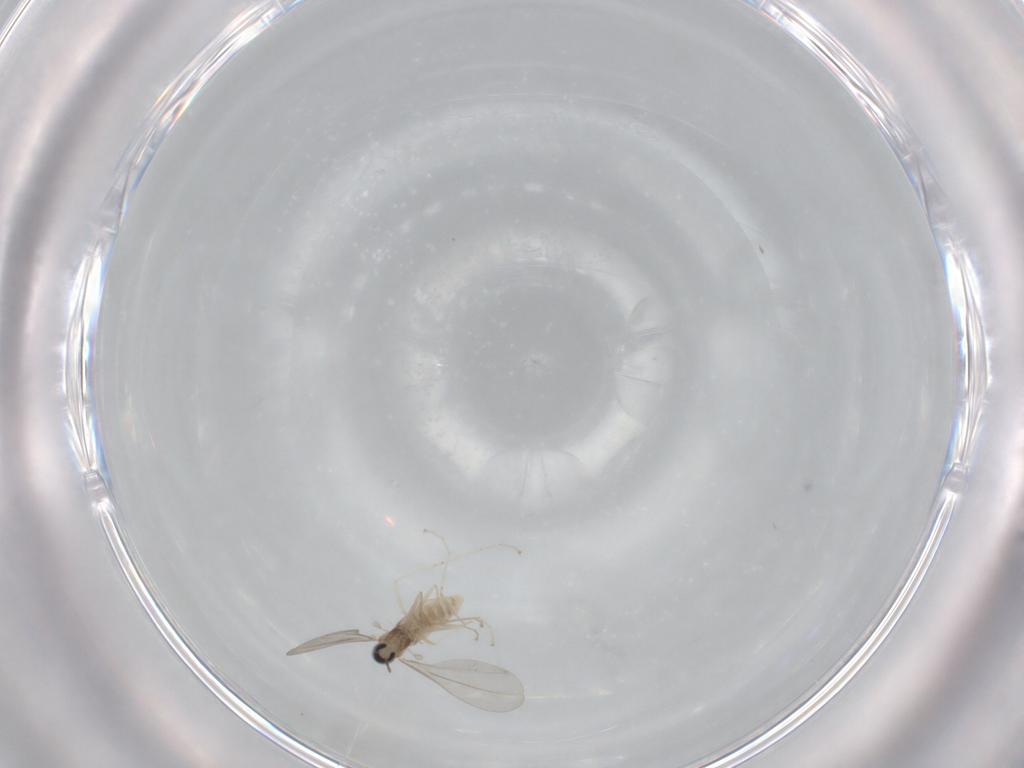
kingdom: Animalia
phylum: Arthropoda
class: Insecta
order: Diptera
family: Cecidomyiidae
